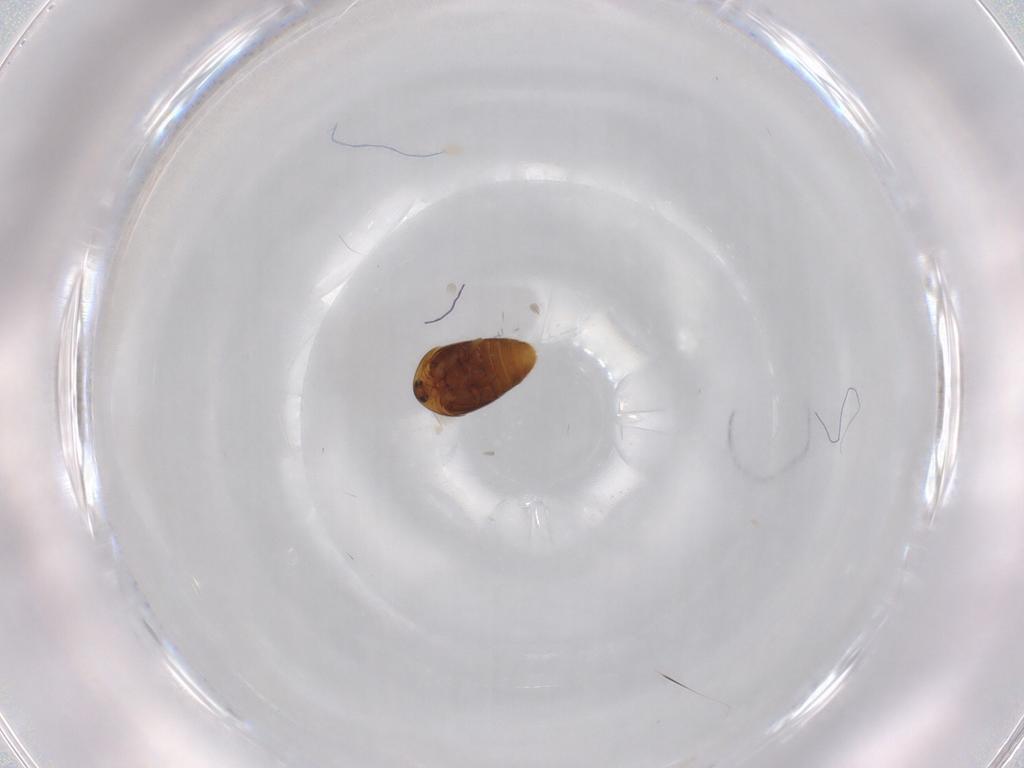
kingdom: Animalia
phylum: Arthropoda
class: Insecta
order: Coleoptera
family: Corylophidae
